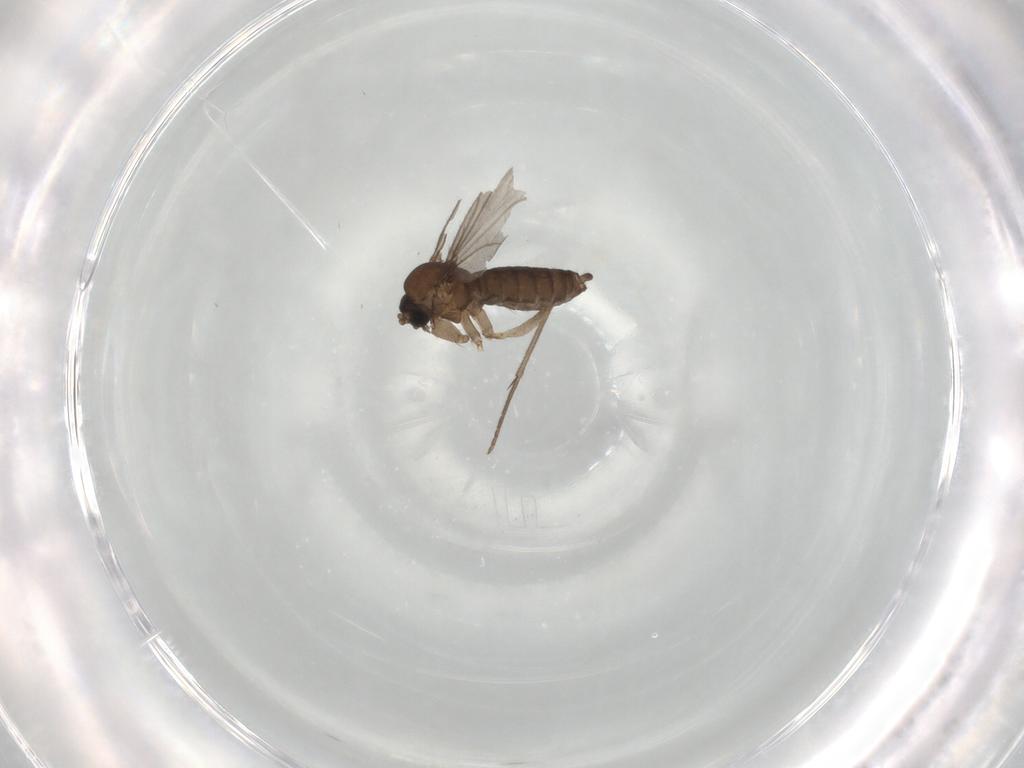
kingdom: Animalia
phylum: Arthropoda
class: Insecta
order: Diptera
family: Sciaridae
